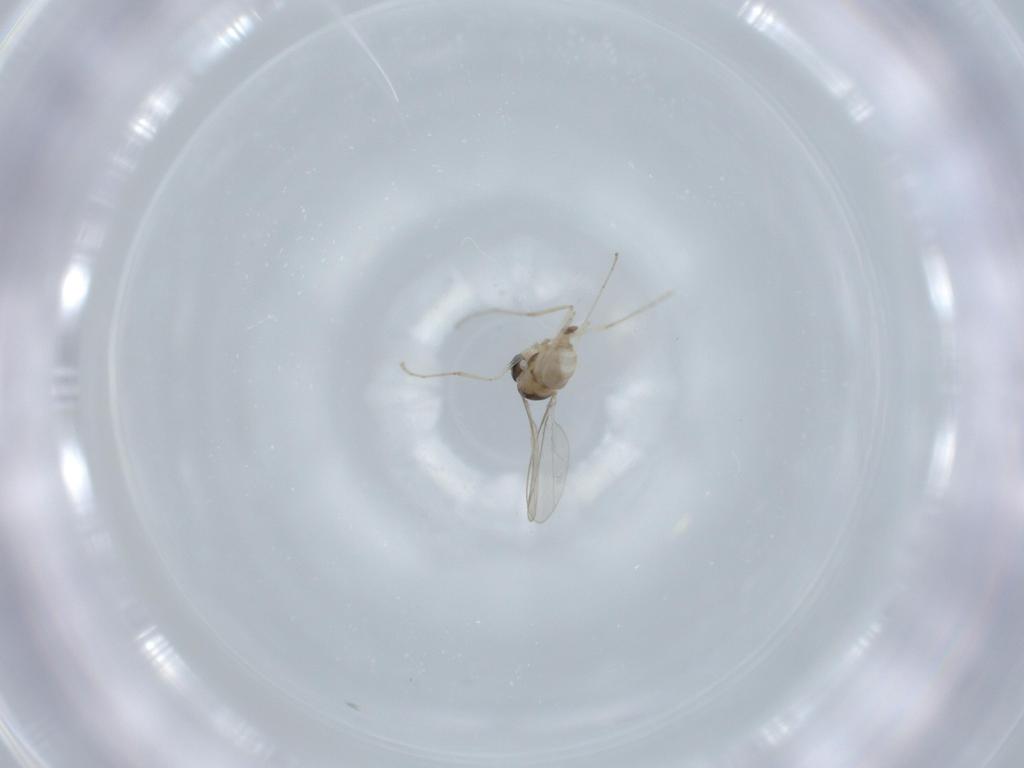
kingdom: Animalia
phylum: Arthropoda
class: Insecta
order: Diptera
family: Cecidomyiidae
